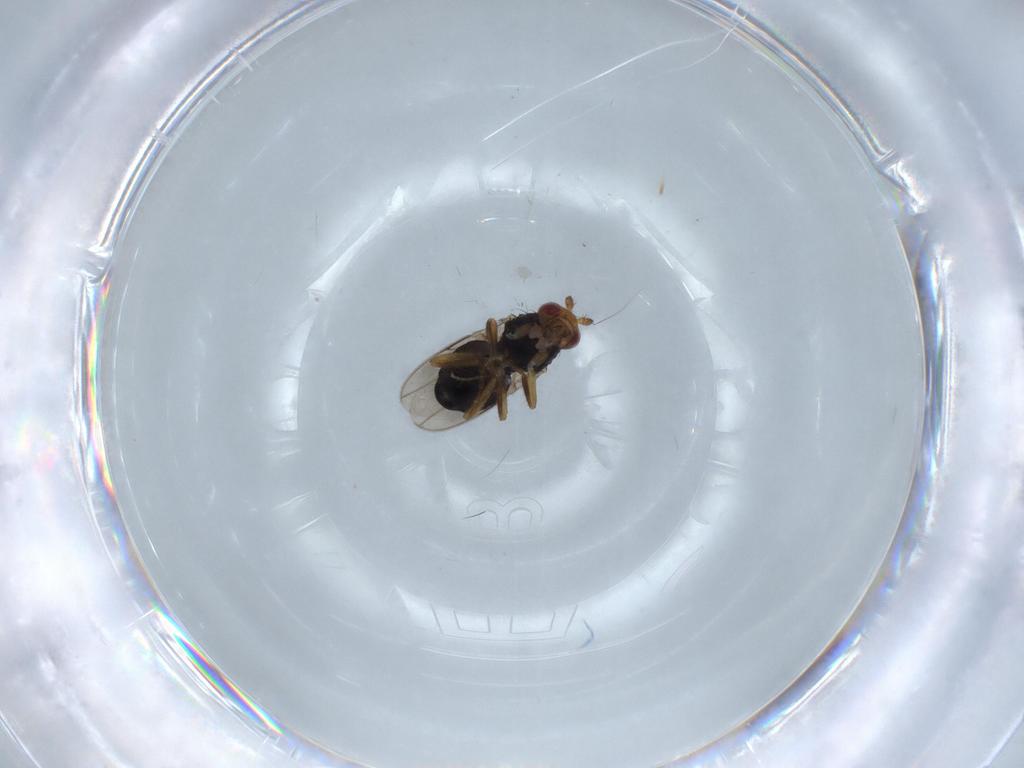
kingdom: Animalia
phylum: Arthropoda
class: Insecta
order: Diptera
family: Sphaeroceridae
